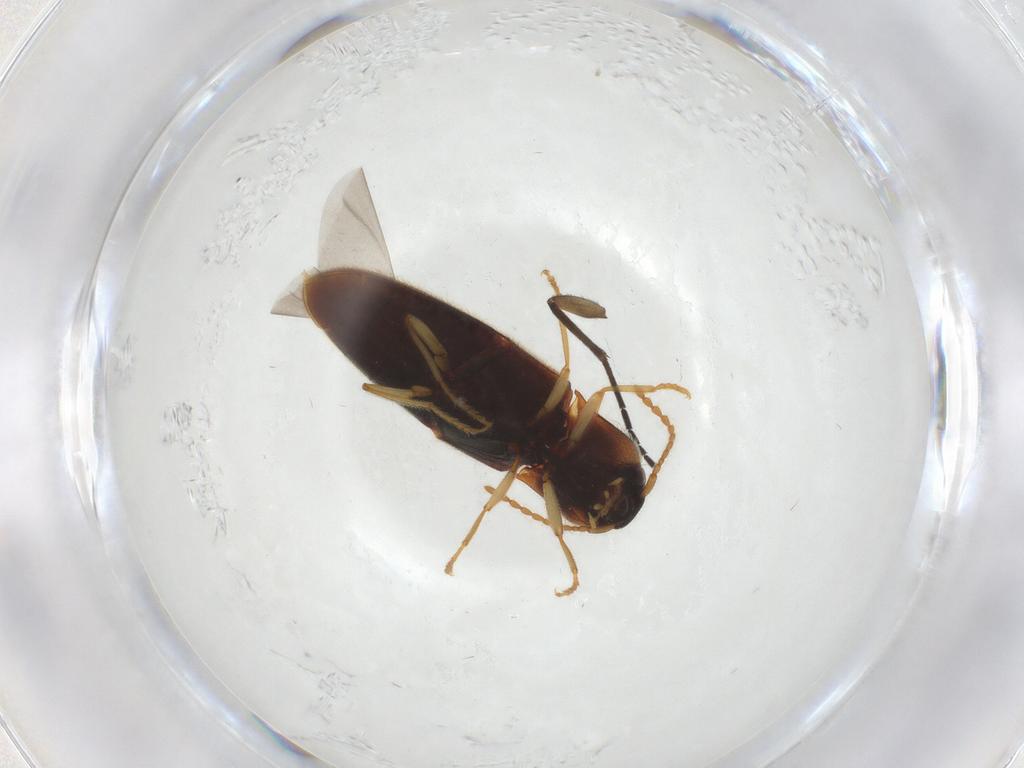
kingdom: Animalia
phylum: Arthropoda
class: Insecta
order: Coleoptera
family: Elateridae
